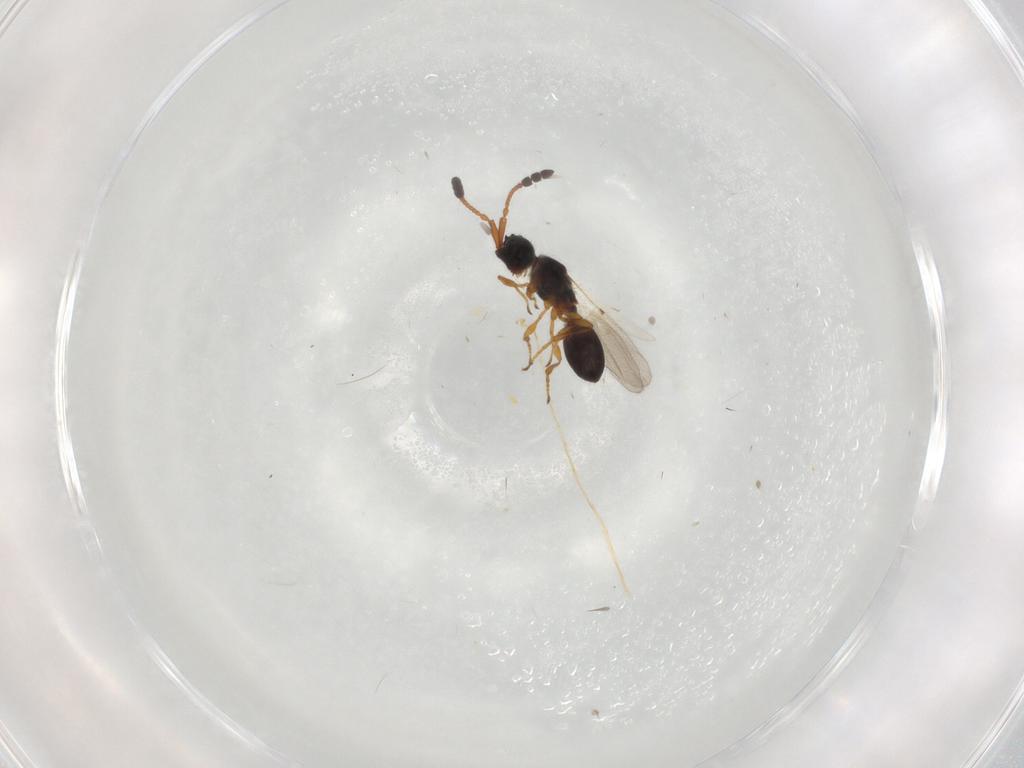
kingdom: Animalia
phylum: Arthropoda
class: Insecta
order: Hymenoptera
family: Diapriidae
